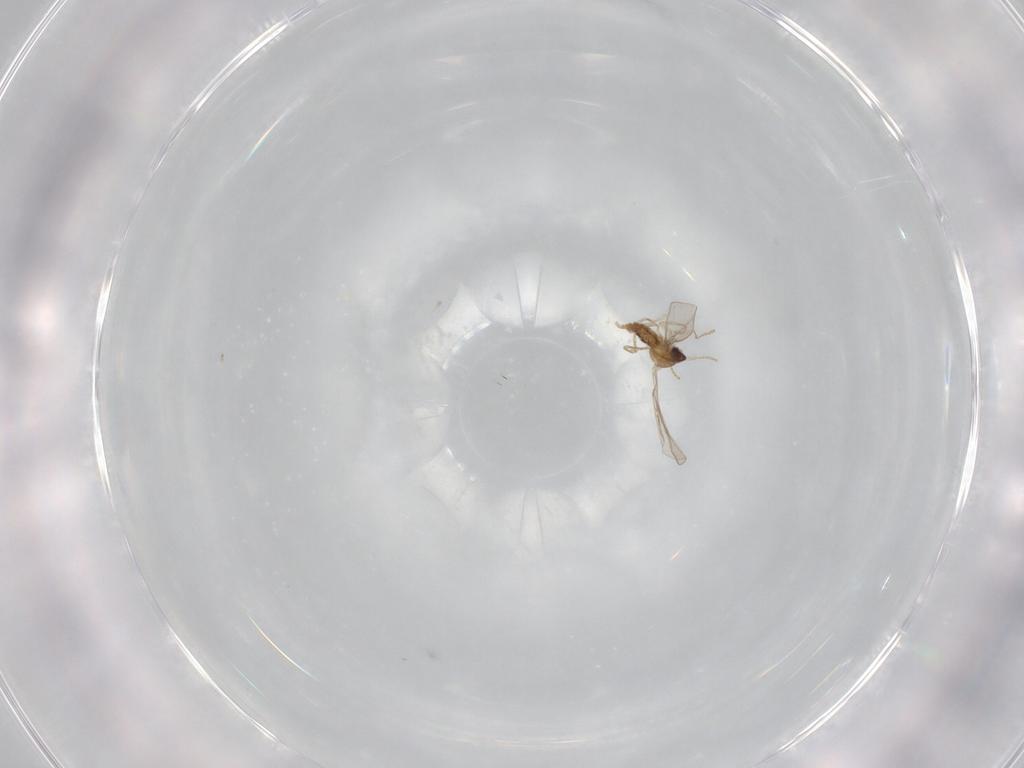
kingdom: Animalia
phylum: Arthropoda
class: Insecta
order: Diptera
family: Cecidomyiidae
